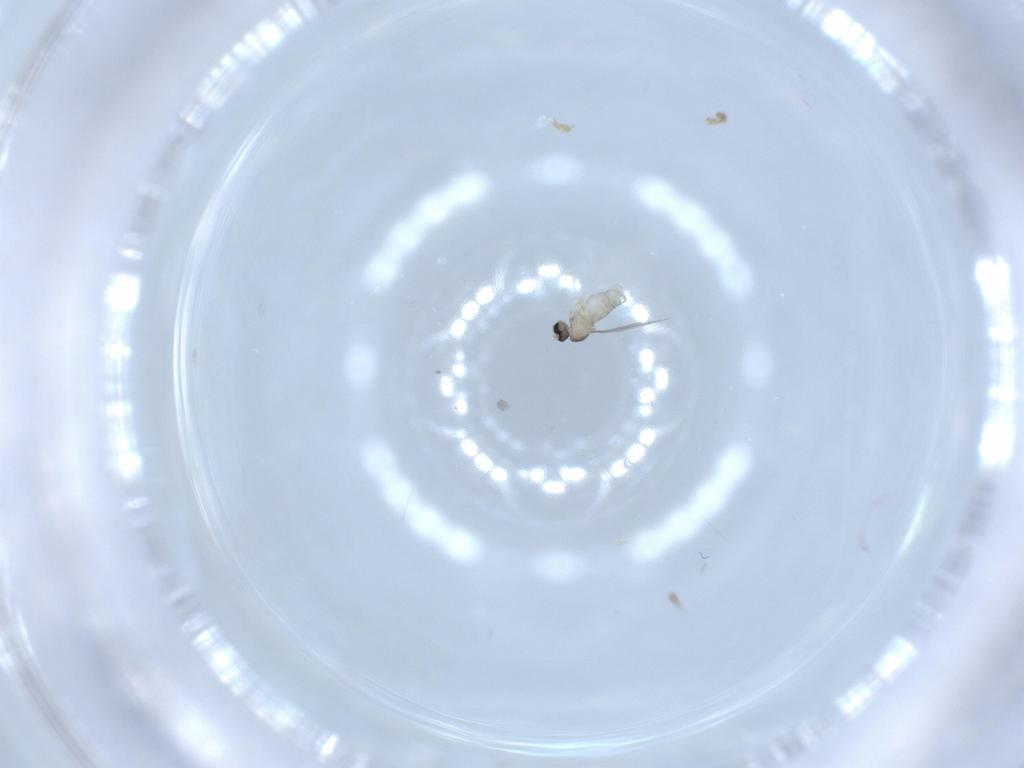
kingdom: Animalia
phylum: Arthropoda
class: Insecta
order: Diptera
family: Cecidomyiidae
